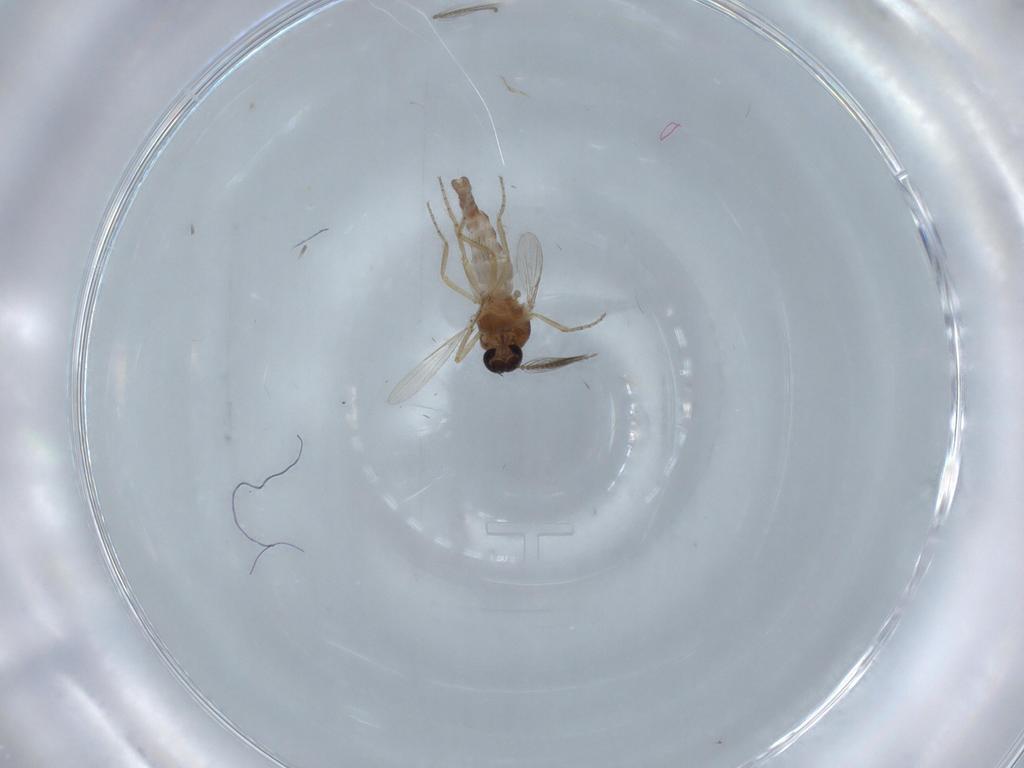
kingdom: Animalia
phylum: Arthropoda
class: Insecta
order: Diptera
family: Ceratopogonidae
